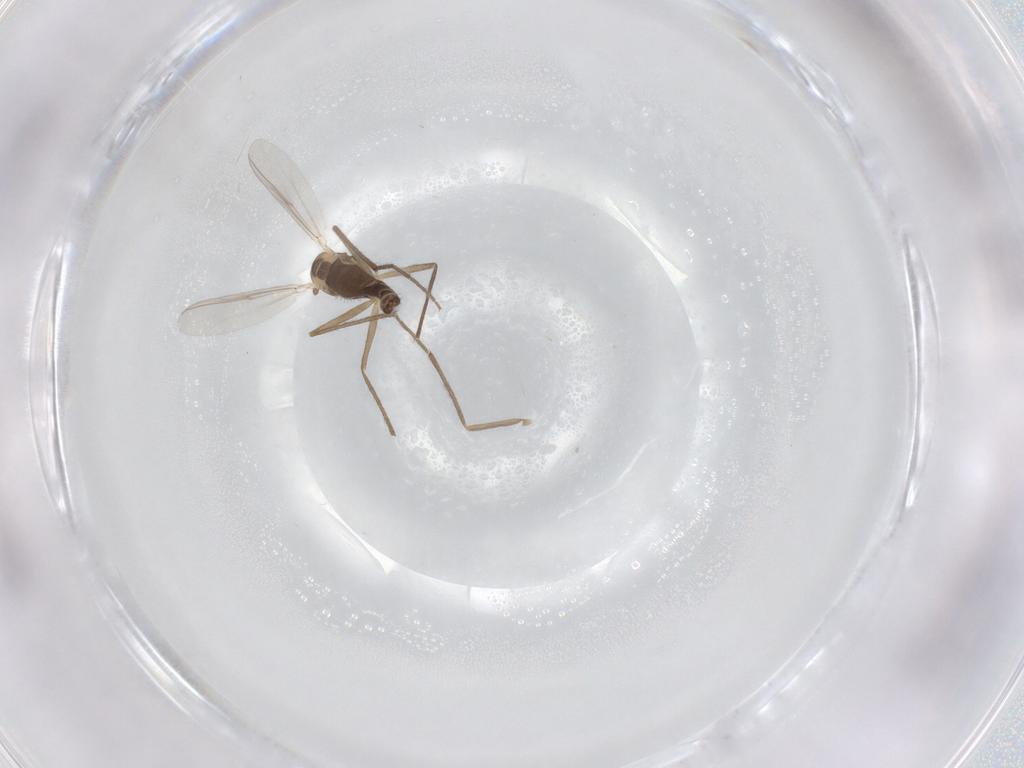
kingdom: Animalia
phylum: Arthropoda
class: Insecta
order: Diptera
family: Chironomidae
